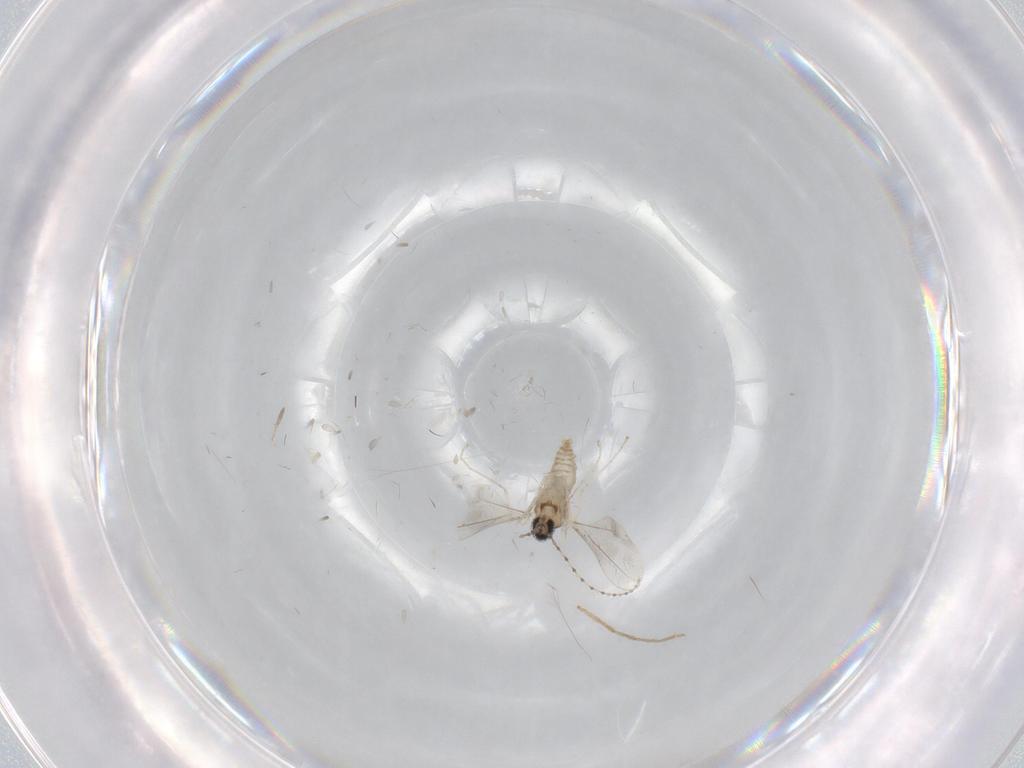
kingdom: Animalia
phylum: Arthropoda
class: Insecta
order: Diptera
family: Cecidomyiidae
